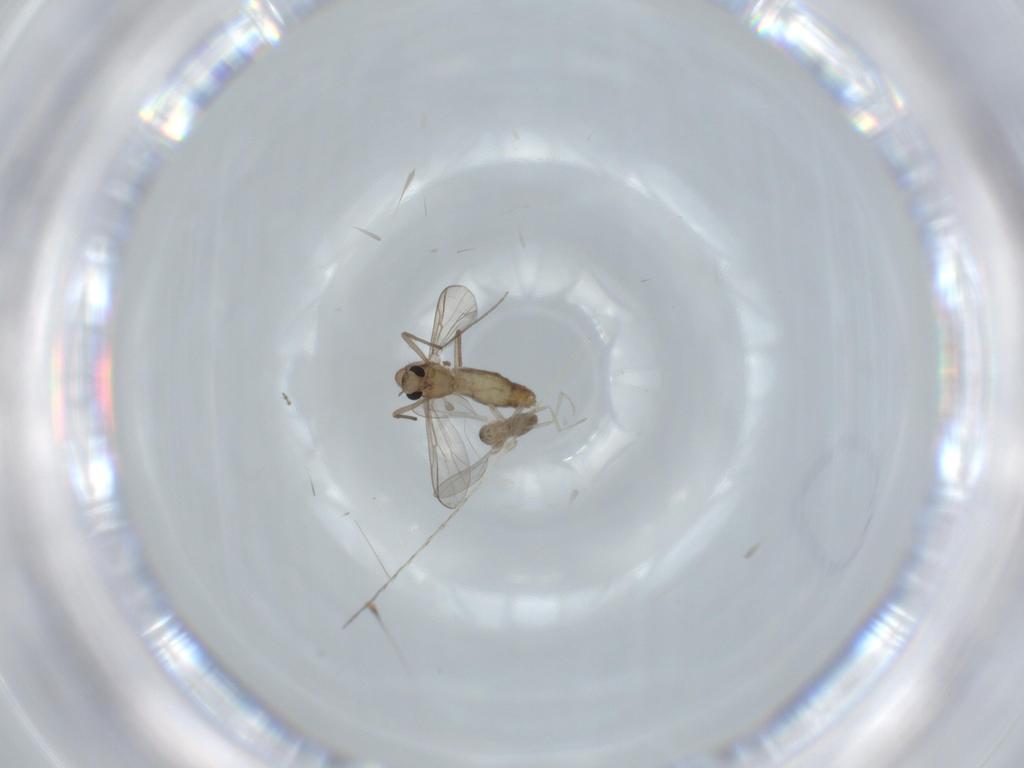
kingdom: Animalia
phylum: Arthropoda
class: Insecta
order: Diptera
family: Cecidomyiidae
